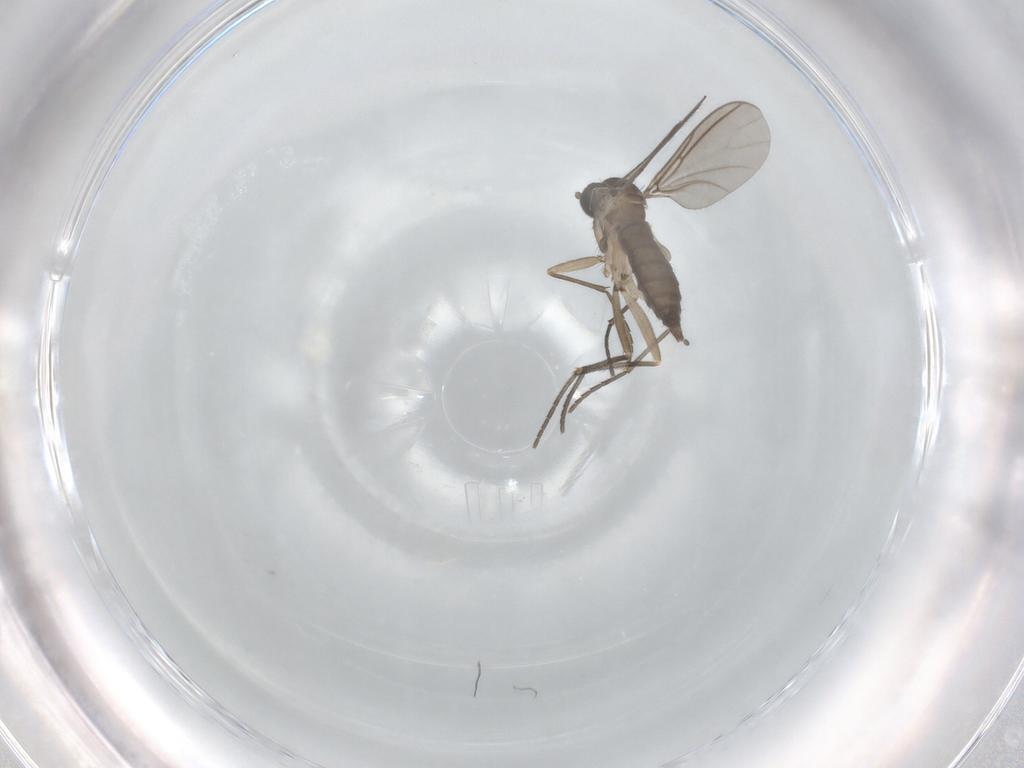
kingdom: Animalia
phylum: Arthropoda
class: Insecta
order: Diptera
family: Sciaridae
